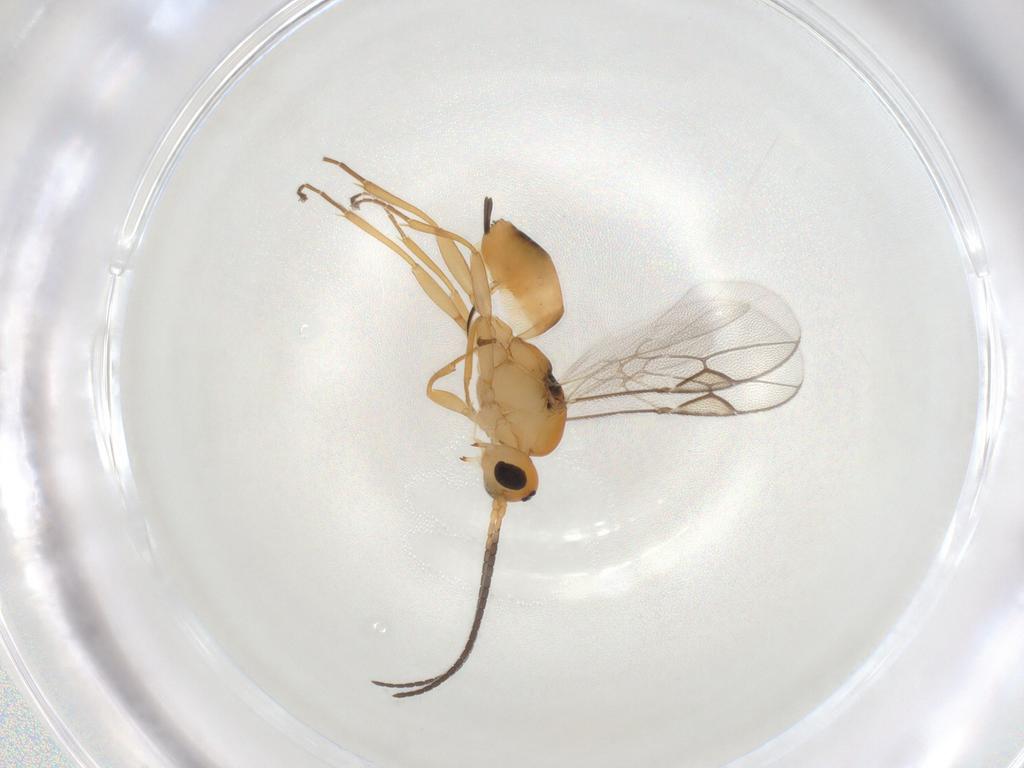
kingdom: Animalia
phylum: Arthropoda
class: Insecta
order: Hymenoptera
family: Braconidae
